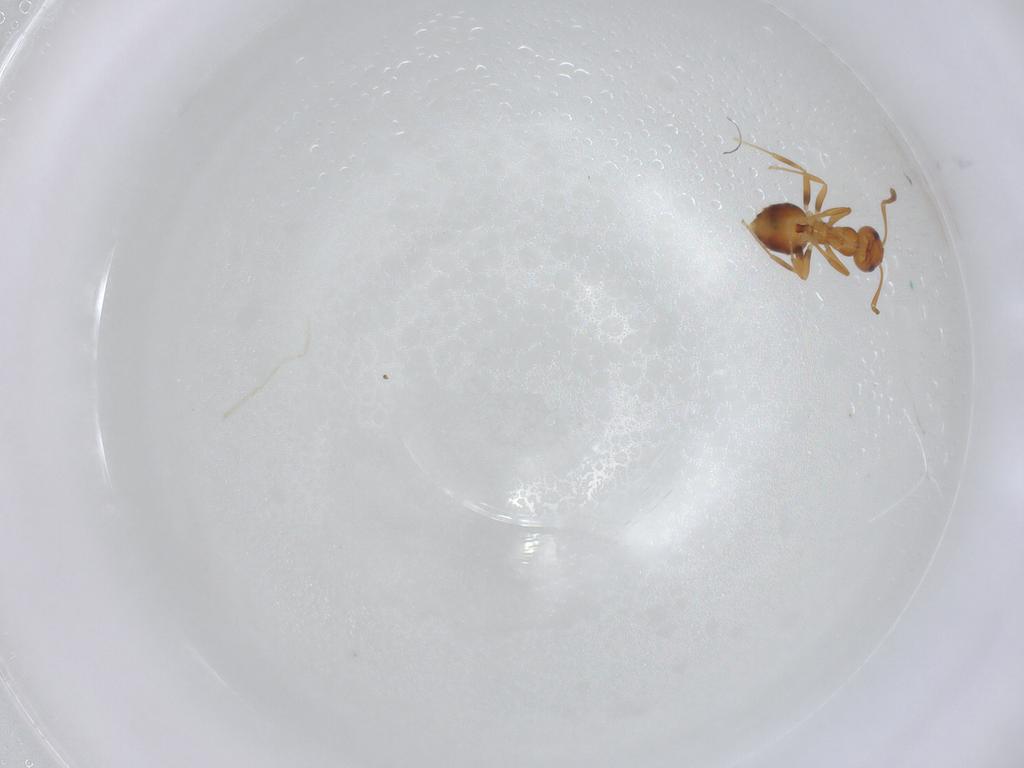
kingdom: Animalia
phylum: Arthropoda
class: Insecta
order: Hymenoptera
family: Formicidae
